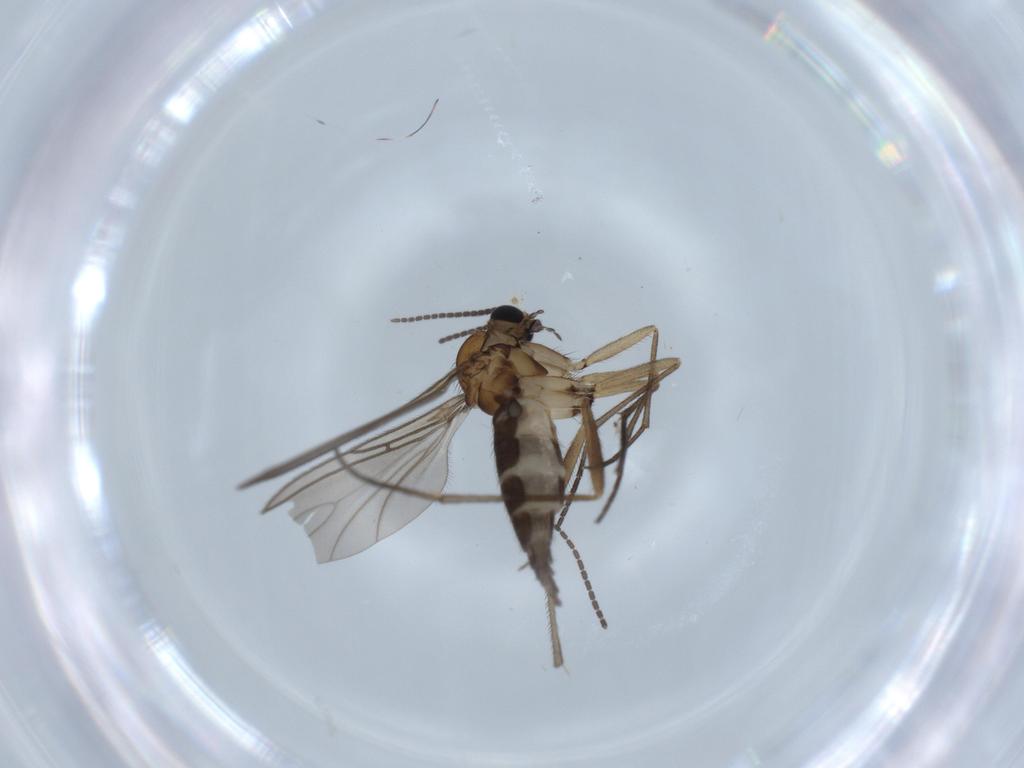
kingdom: Animalia
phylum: Arthropoda
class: Insecta
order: Diptera
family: Sciaridae
